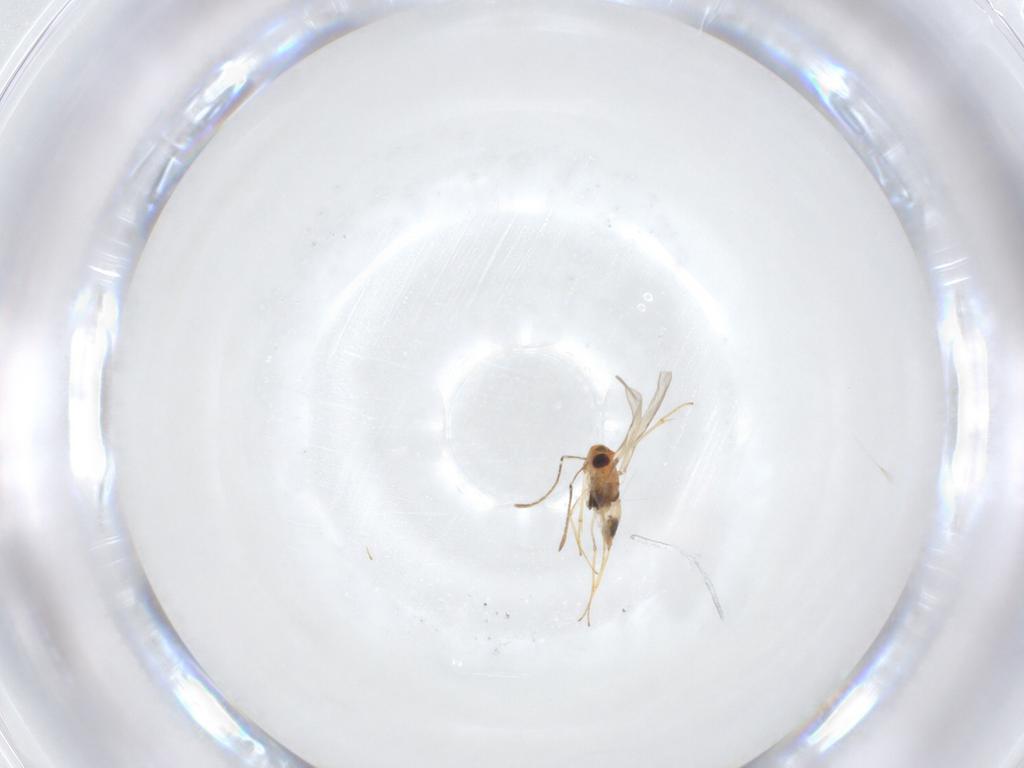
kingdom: Animalia
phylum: Arthropoda
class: Insecta
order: Hymenoptera
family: Encyrtidae
